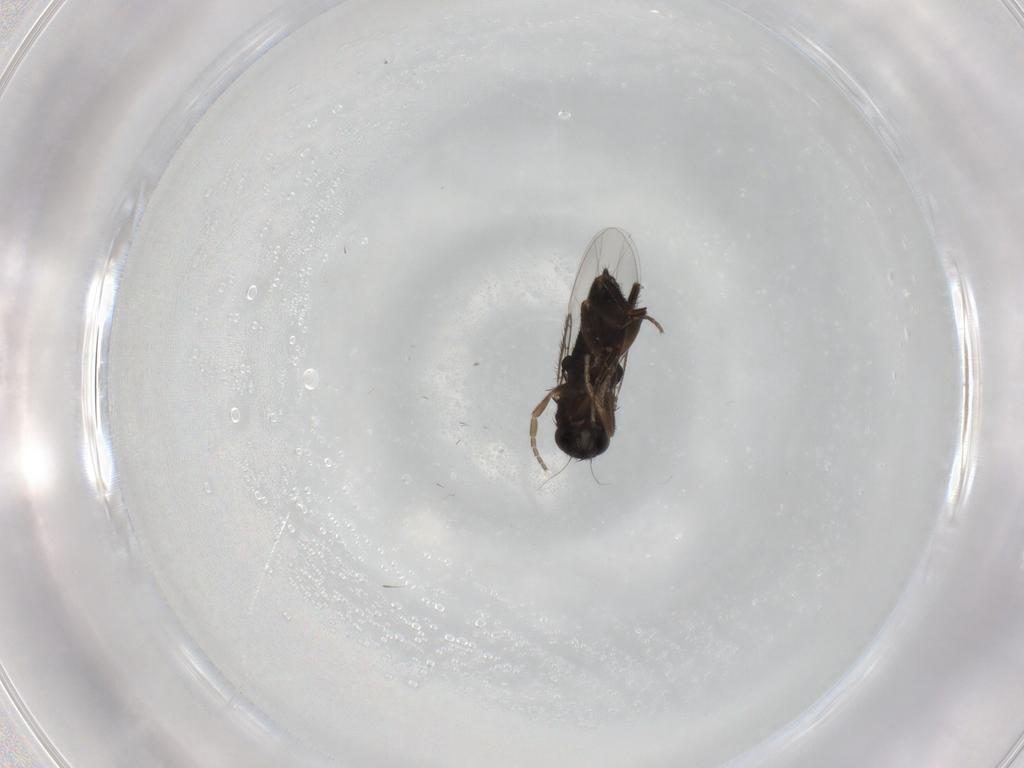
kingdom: Animalia
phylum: Arthropoda
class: Insecta
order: Diptera
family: Phoridae
